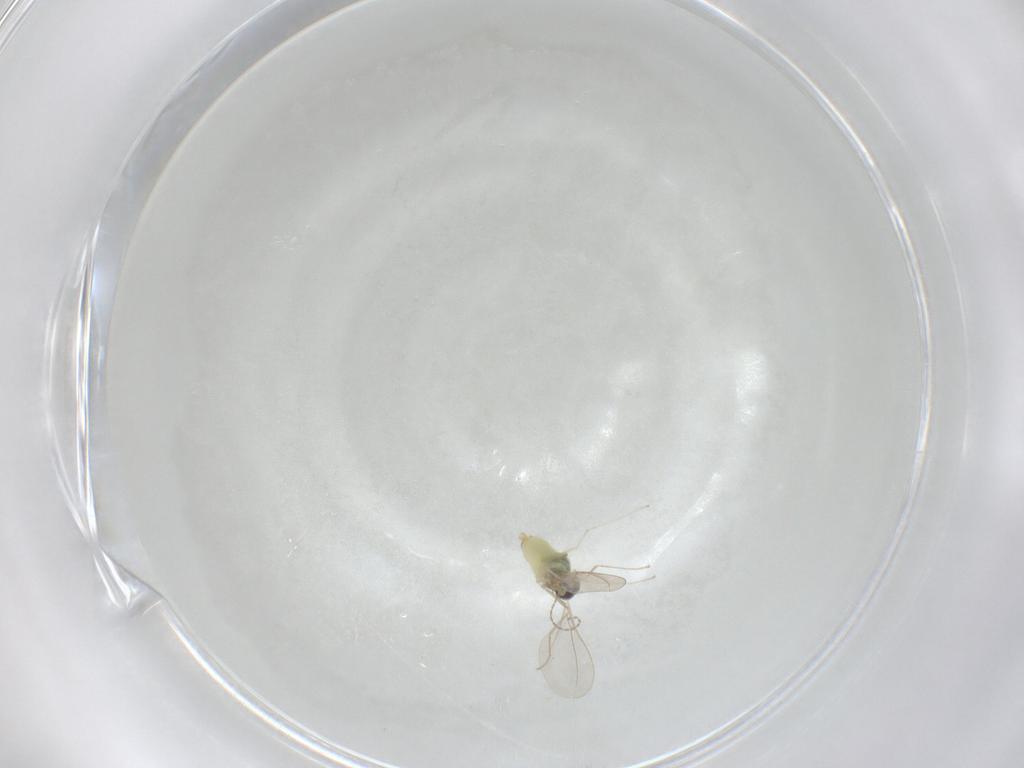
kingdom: Animalia
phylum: Arthropoda
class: Insecta
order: Diptera
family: Cecidomyiidae
